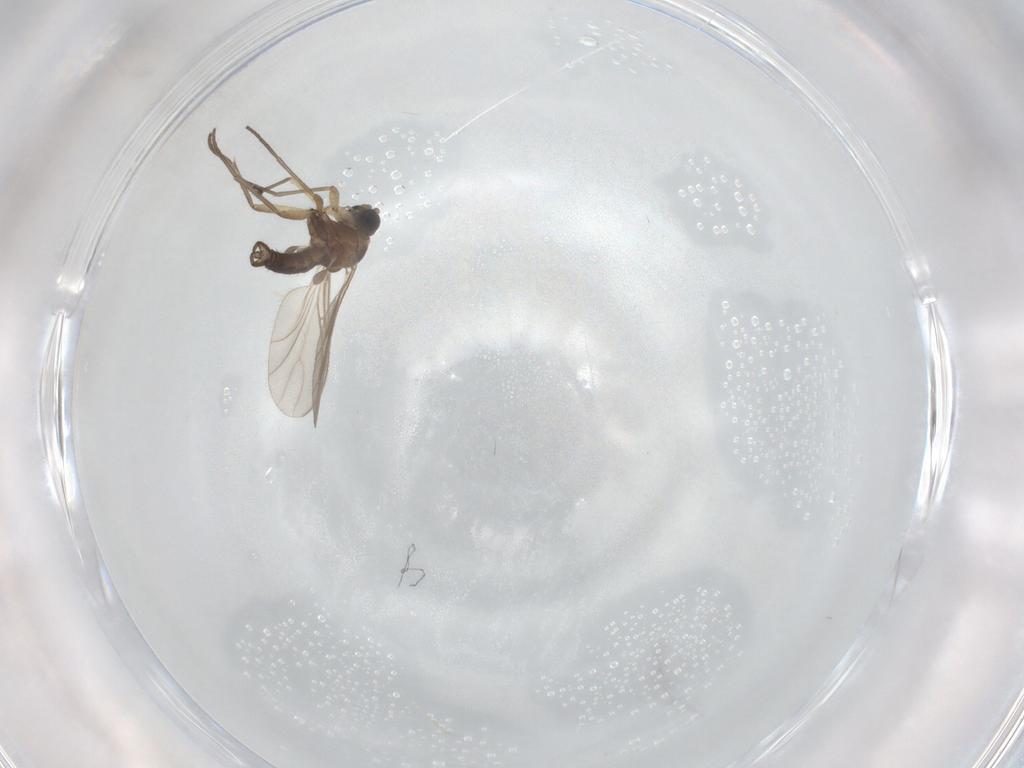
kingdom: Animalia
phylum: Arthropoda
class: Insecta
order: Diptera
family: Sciaridae
